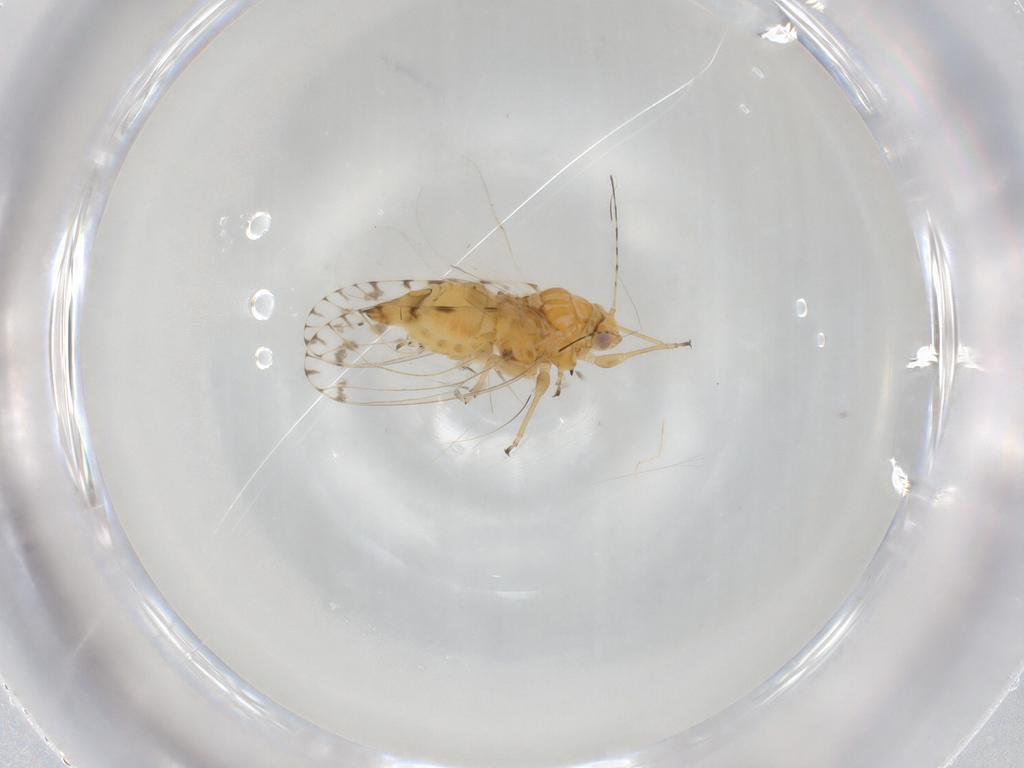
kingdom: Animalia
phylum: Arthropoda
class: Insecta
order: Hemiptera
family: Psyllidae
